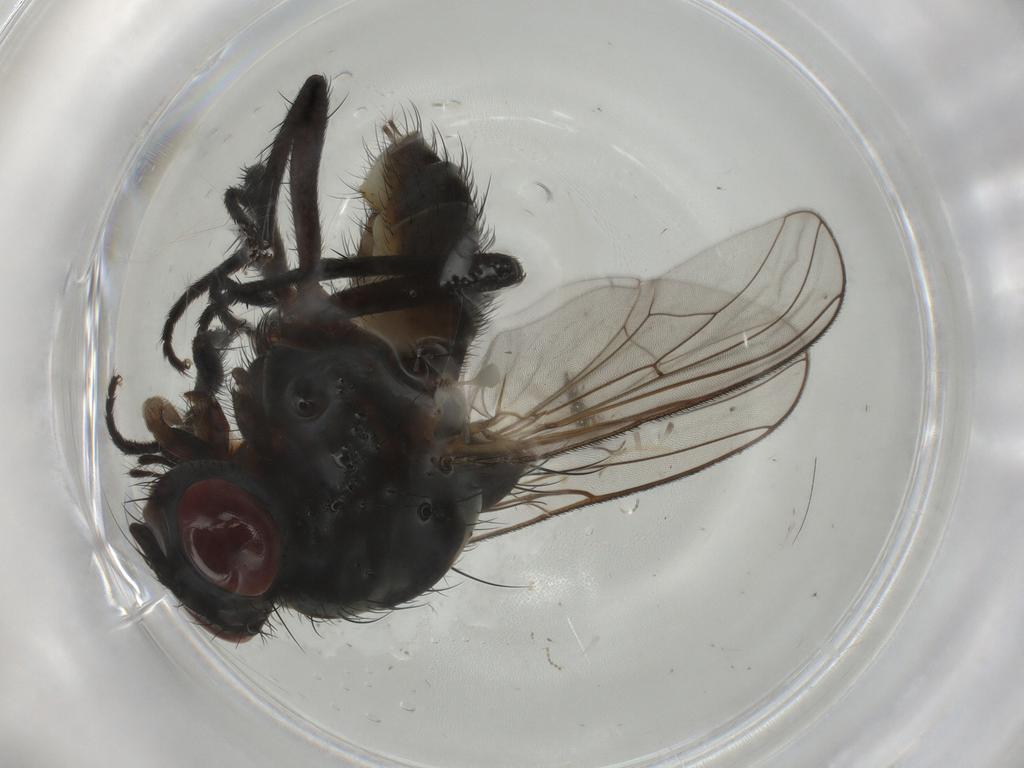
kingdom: Animalia
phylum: Arthropoda
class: Insecta
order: Diptera
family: Anthomyiidae
